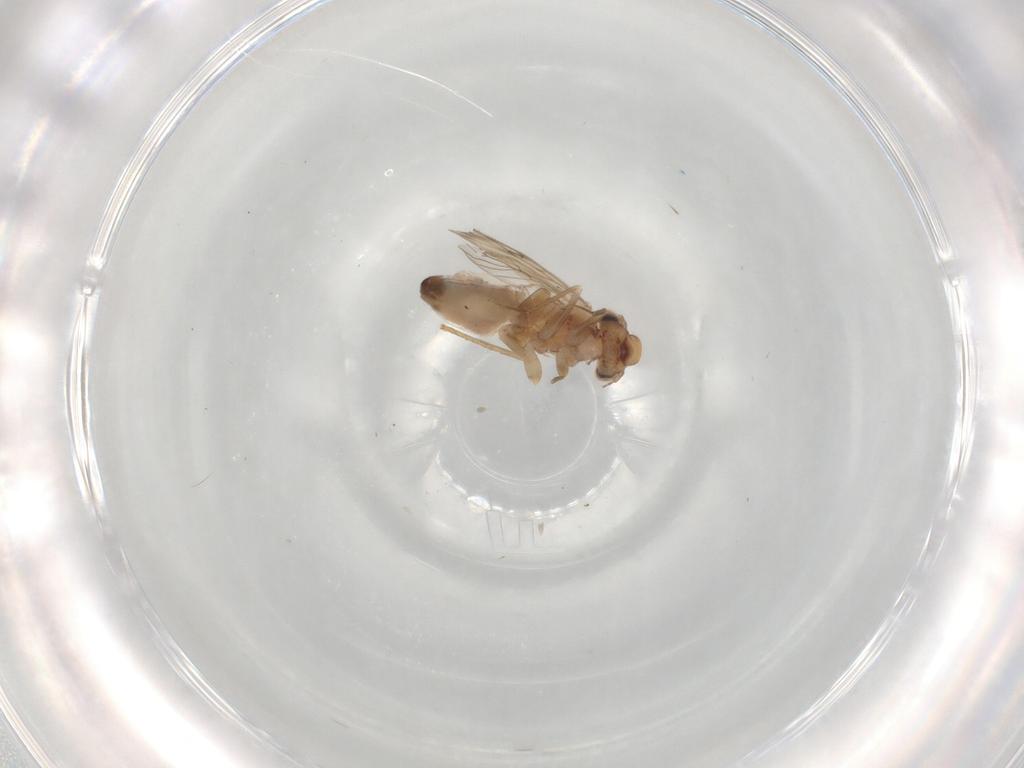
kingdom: Animalia
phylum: Arthropoda
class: Insecta
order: Psocodea
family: Lepidopsocidae
